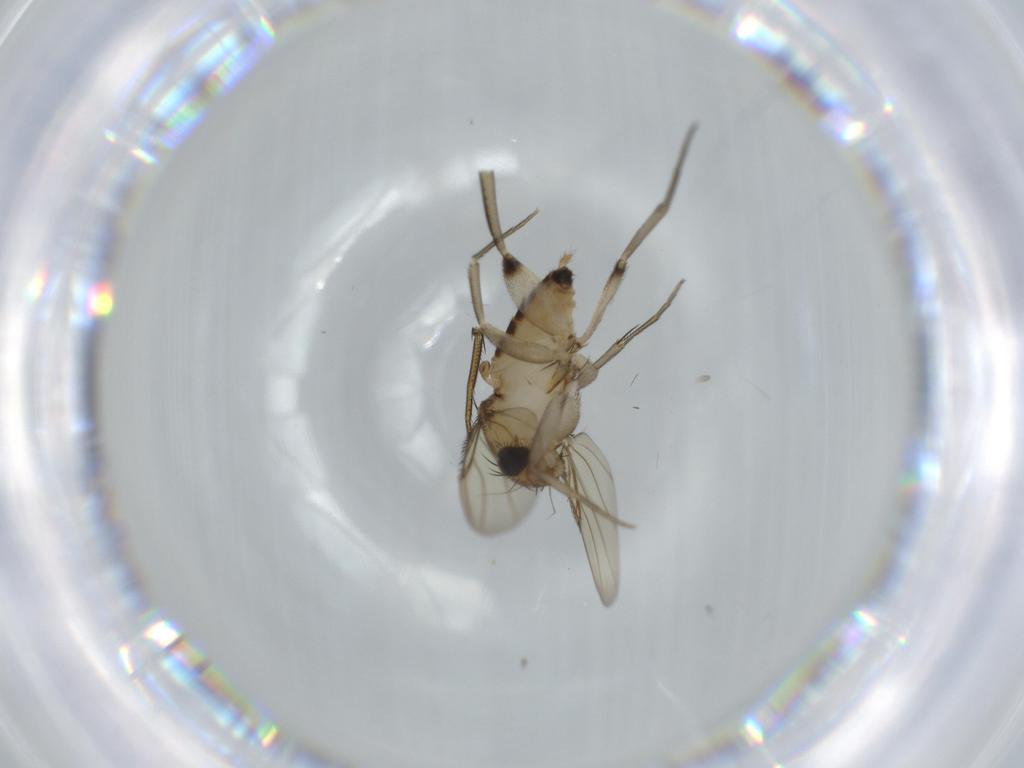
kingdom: Animalia
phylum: Arthropoda
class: Insecta
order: Diptera
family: Phoridae
